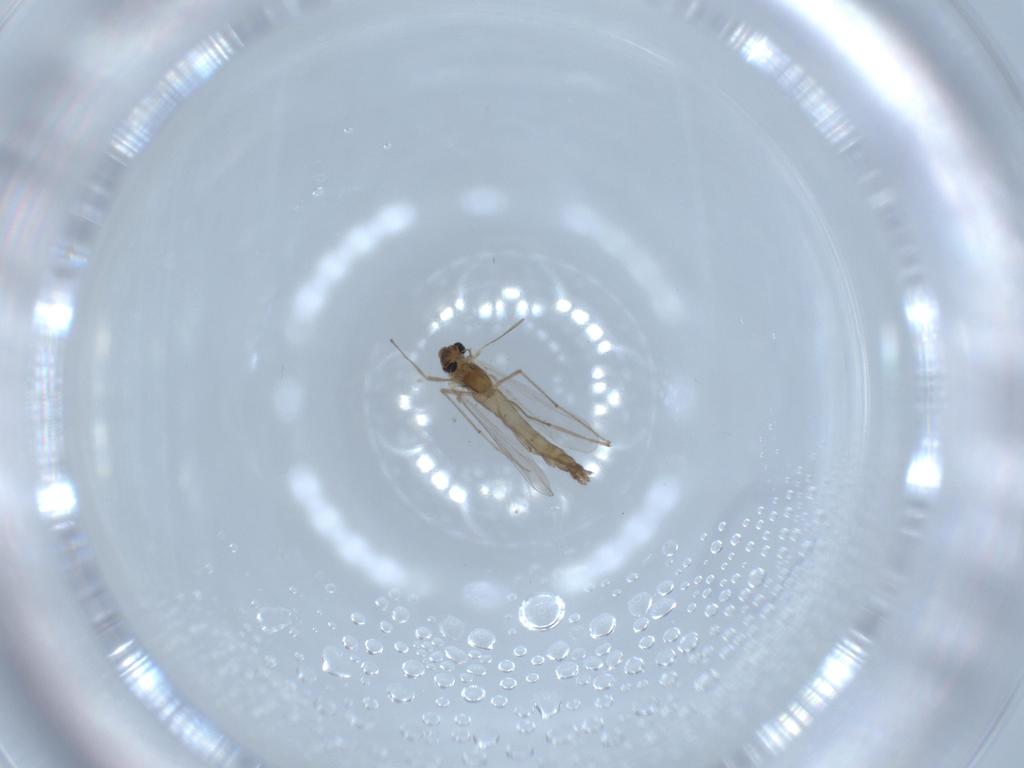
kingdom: Animalia
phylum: Arthropoda
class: Insecta
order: Diptera
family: Chironomidae
